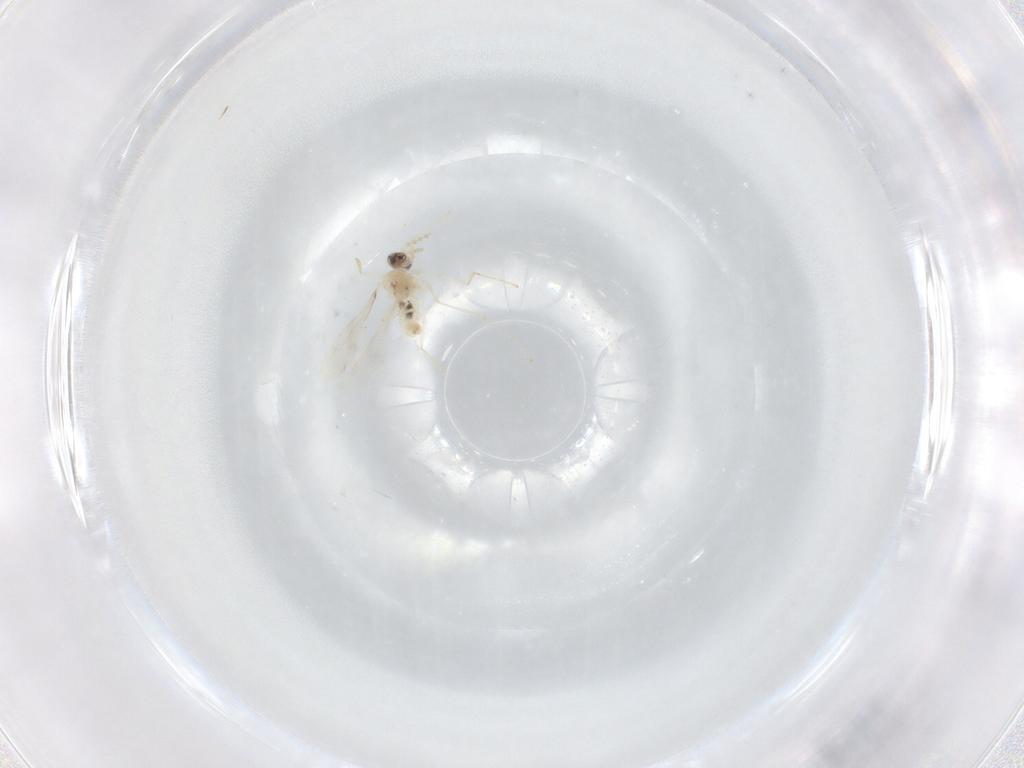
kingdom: Animalia
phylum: Arthropoda
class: Insecta
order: Diptera
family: Cecidomyiidae
